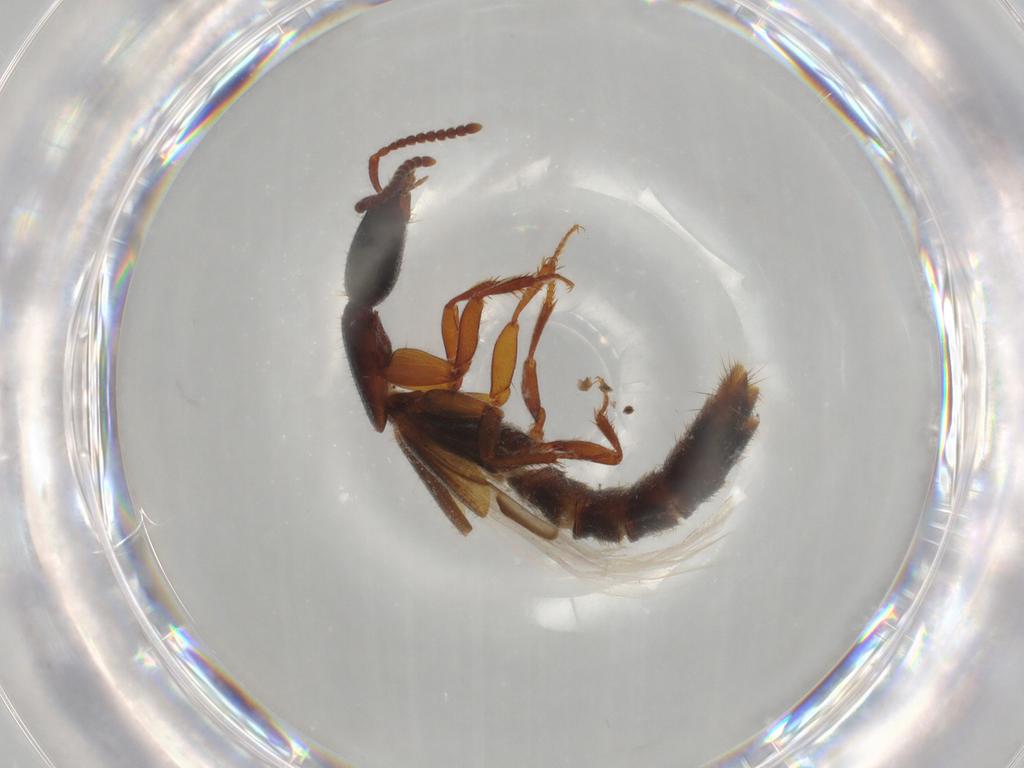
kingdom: Animalia
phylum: Arthropoda
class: Insecta
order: Coleoptera
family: Staphylinidae
